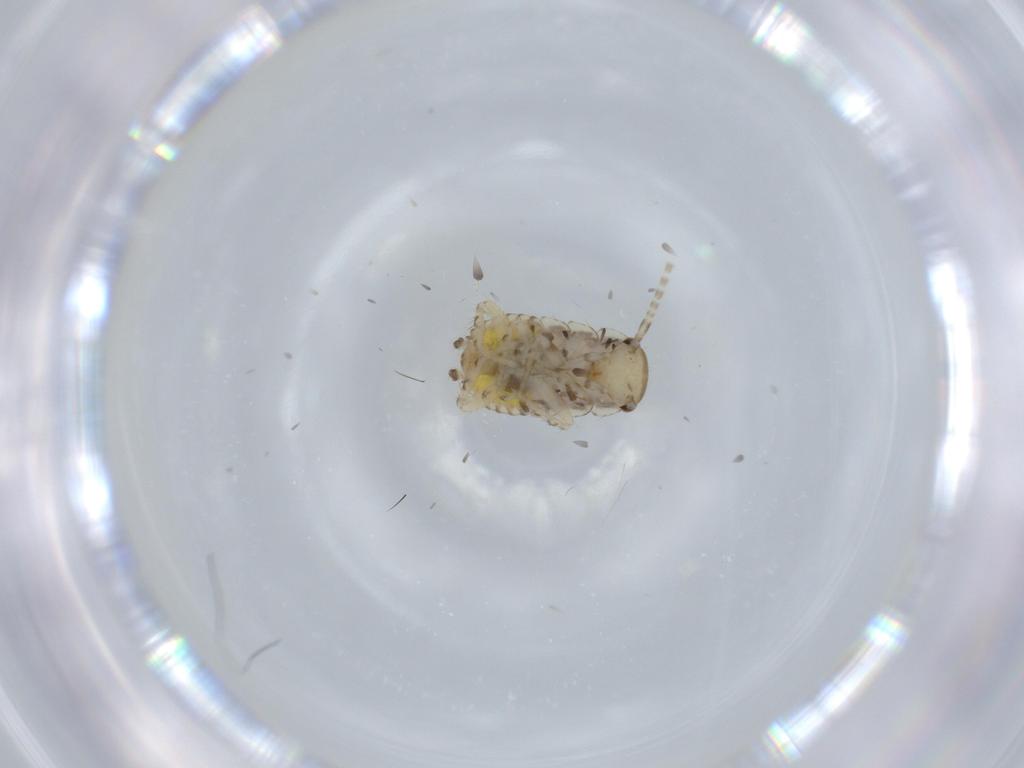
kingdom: Animalia
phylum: Arthropoda
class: Insecta
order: Blattodea
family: Ectobiidae
